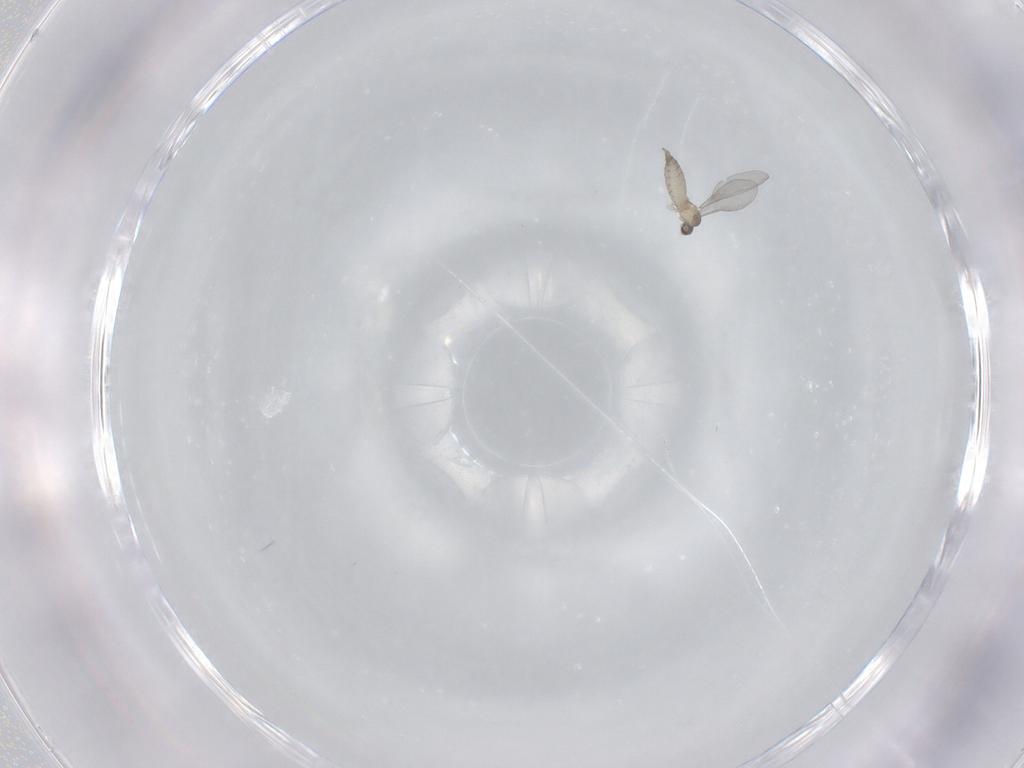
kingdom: Animalia
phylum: Arthropoda
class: Insecta
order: Diptera
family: Cecidomyiidae
